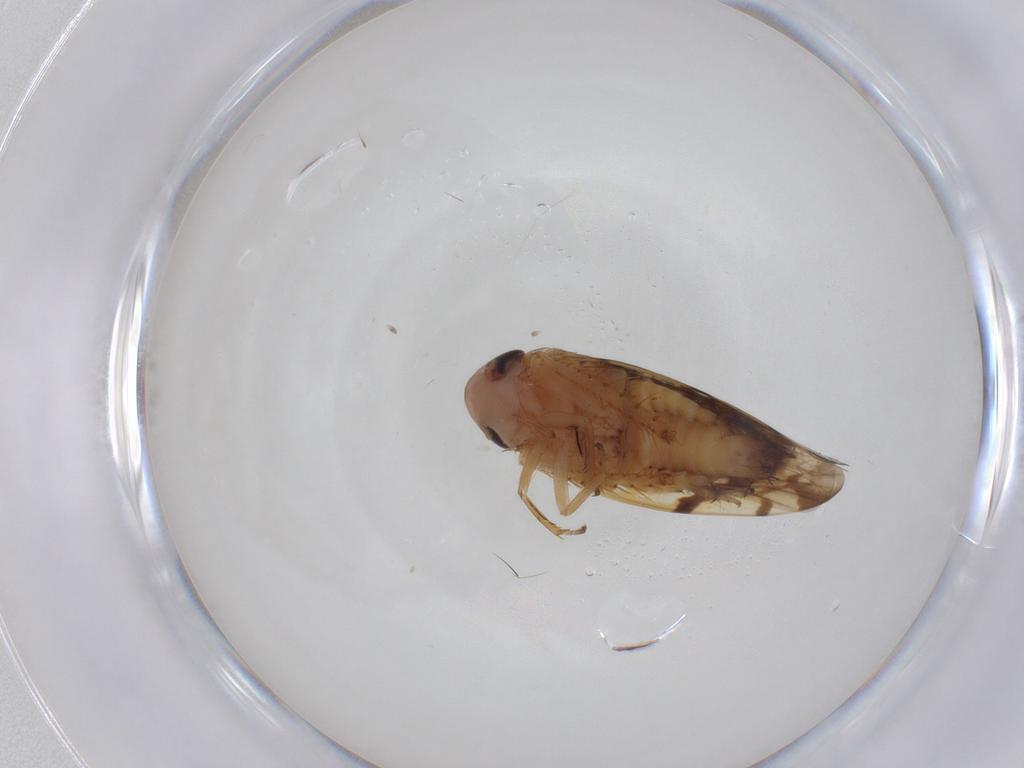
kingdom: Animalia
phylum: Arthropoda
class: Insecta
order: Hemiptera
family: Cicadellidae
